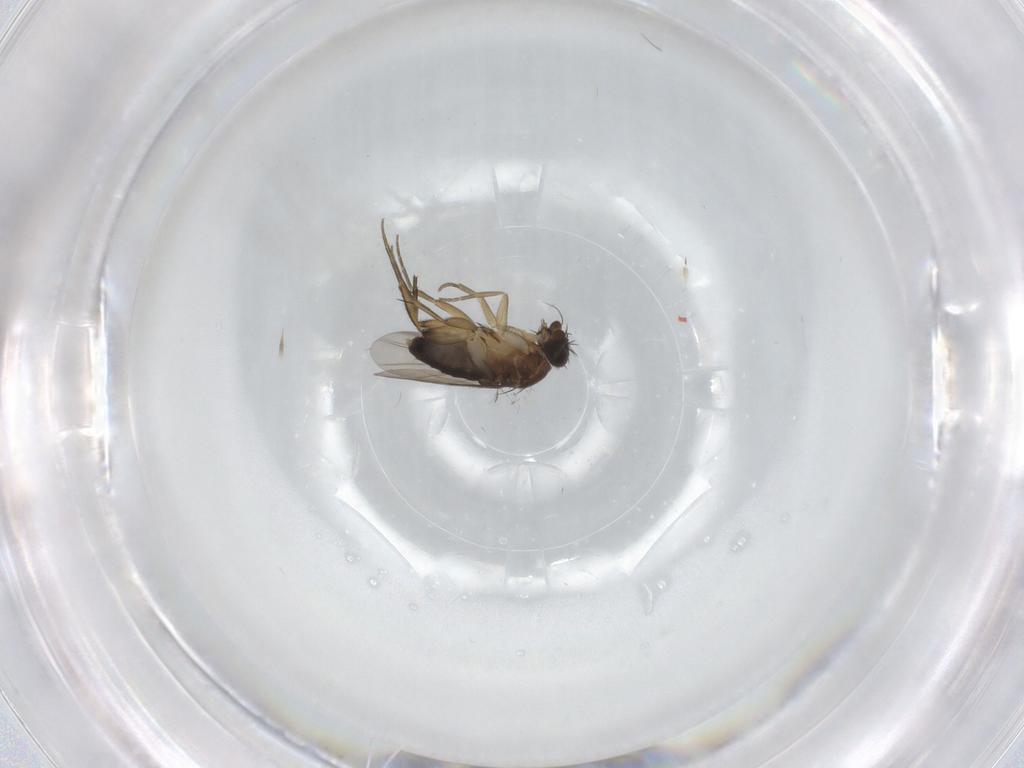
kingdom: Animalia
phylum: Arthropoda
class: Insecta
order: Diptera
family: Phoridae
